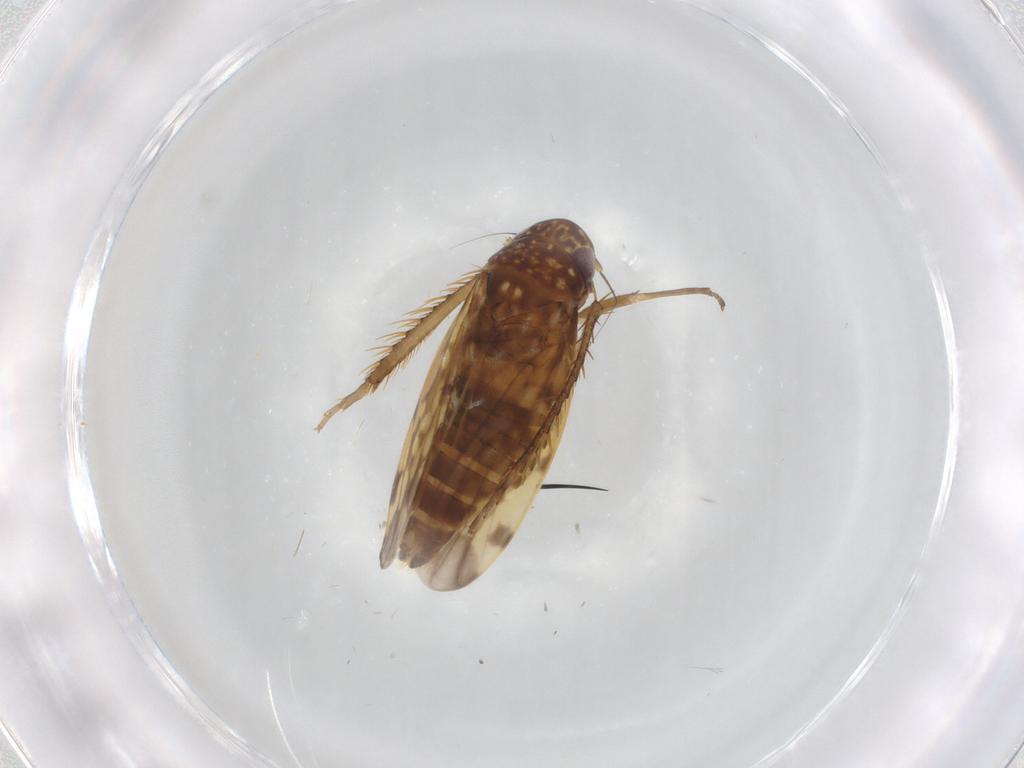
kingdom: Animalia
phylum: Arthropoda
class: Insecta
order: Hemiptera
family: Cicadellidae
